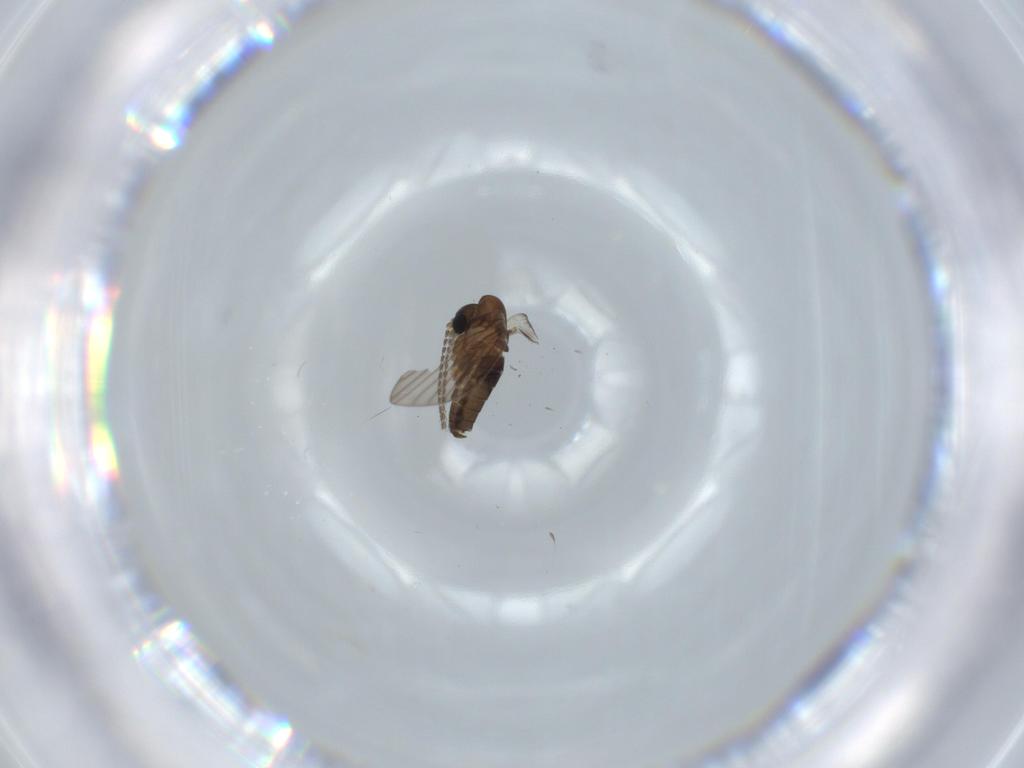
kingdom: Animalia
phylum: Arthropoda
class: Insecta
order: Diptera
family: Psychodidae
